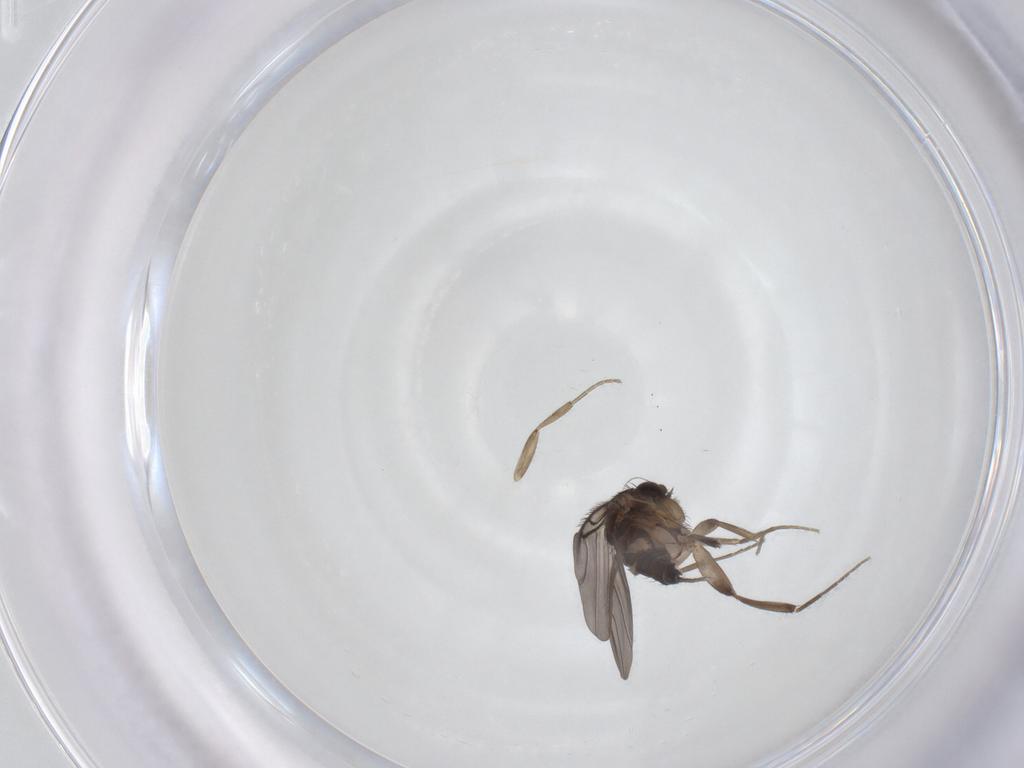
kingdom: Animalia
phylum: Arthropoda
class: Insecta
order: Diptera
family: Phoridae
